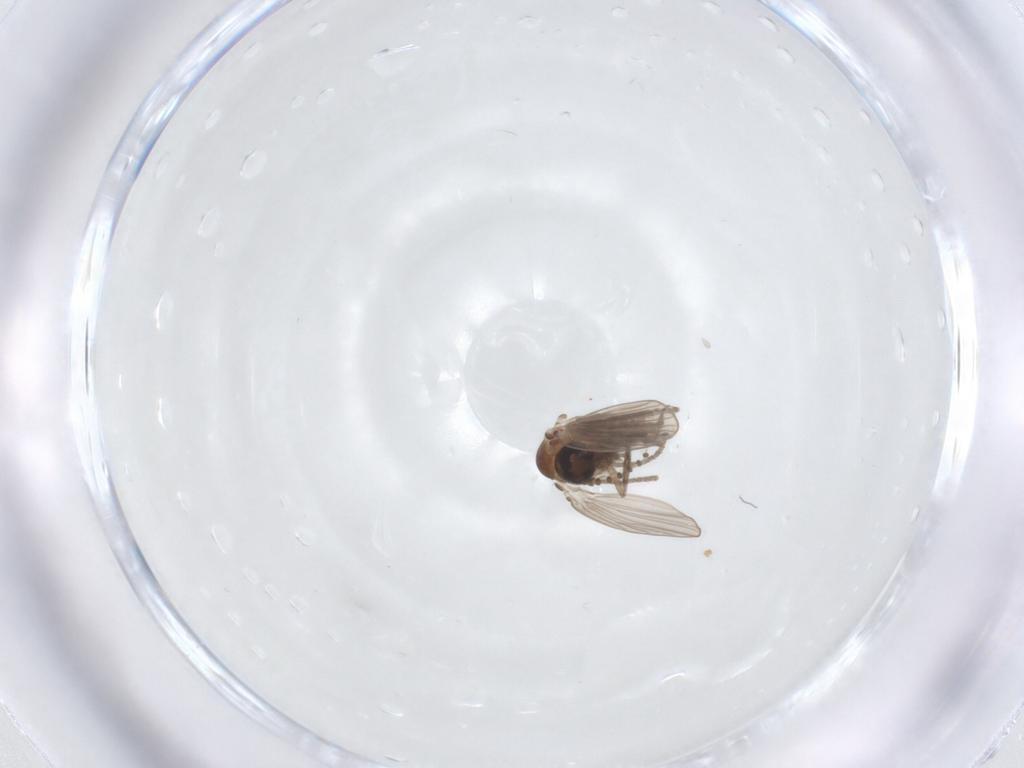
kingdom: Animalia
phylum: Arthropoda
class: Insecta
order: Diptera
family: Psychodidae
